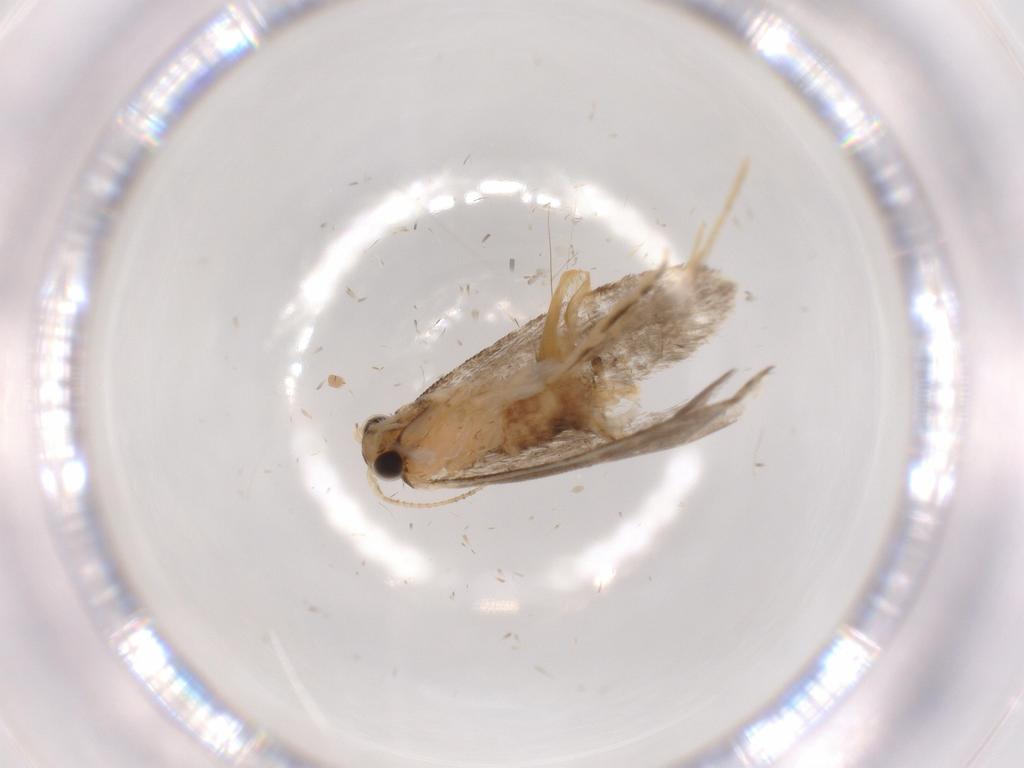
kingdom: Animalia
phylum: Arthropoda
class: Insecta
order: Lepidoptera
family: Tineidae
